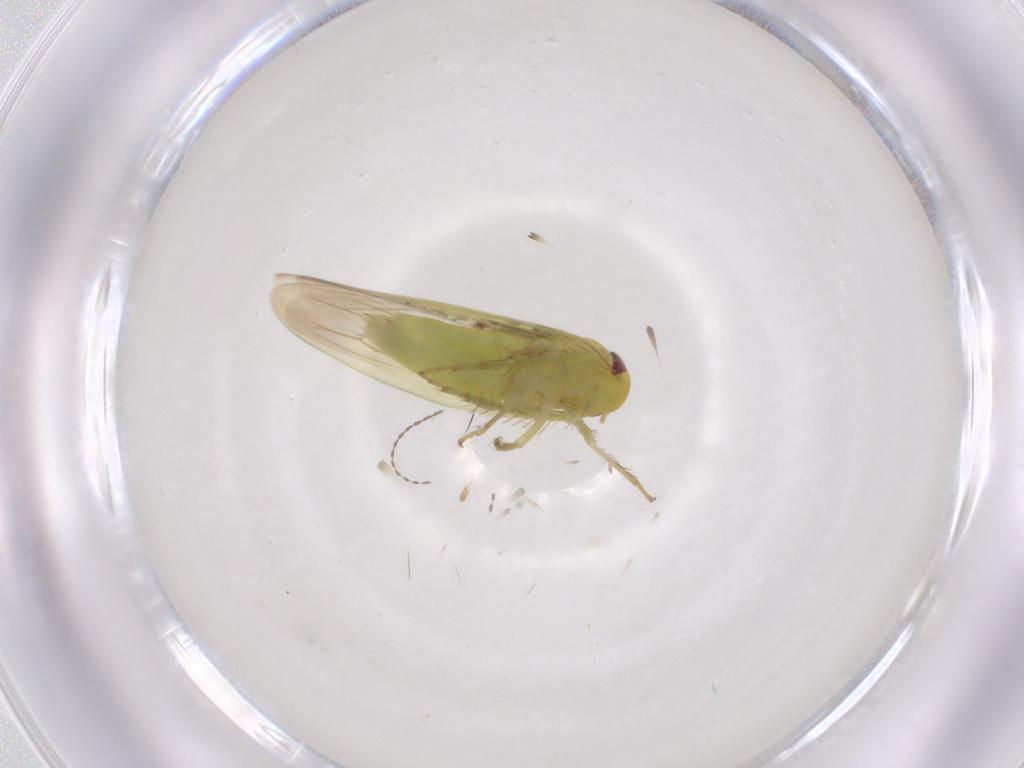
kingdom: Animalia
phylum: Arthropoda
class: Insecta
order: Hemiptera
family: Cicadellidae
